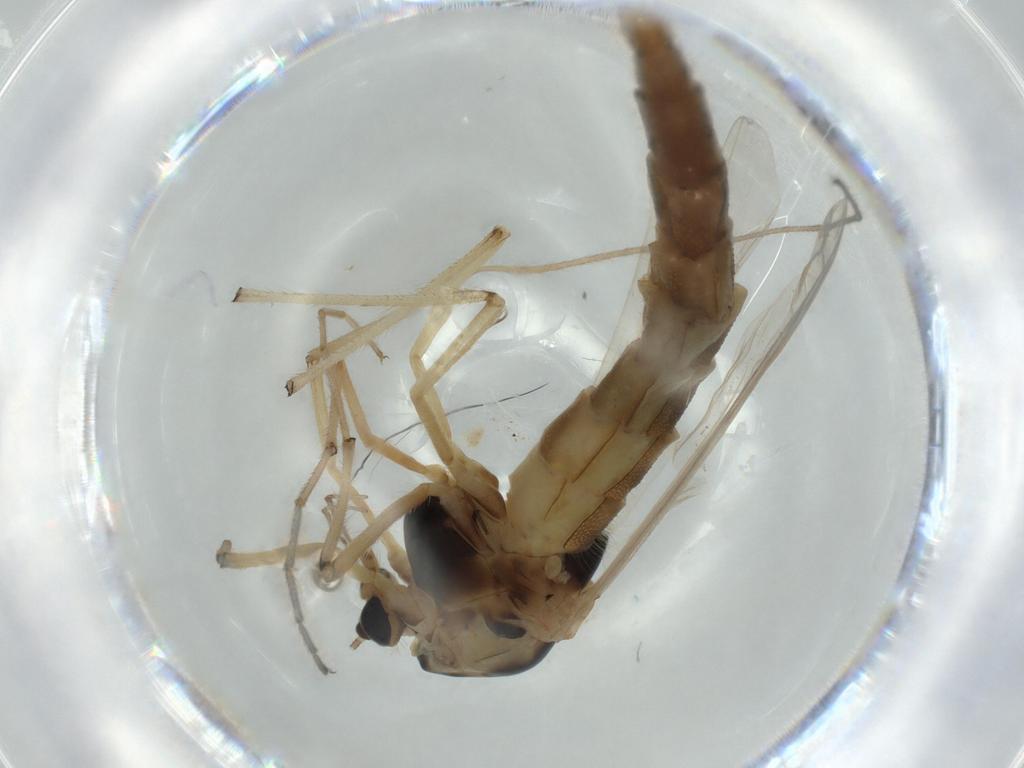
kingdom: Animalia
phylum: Arthropoda
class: Insecta
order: Diptera
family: Chironomidae
